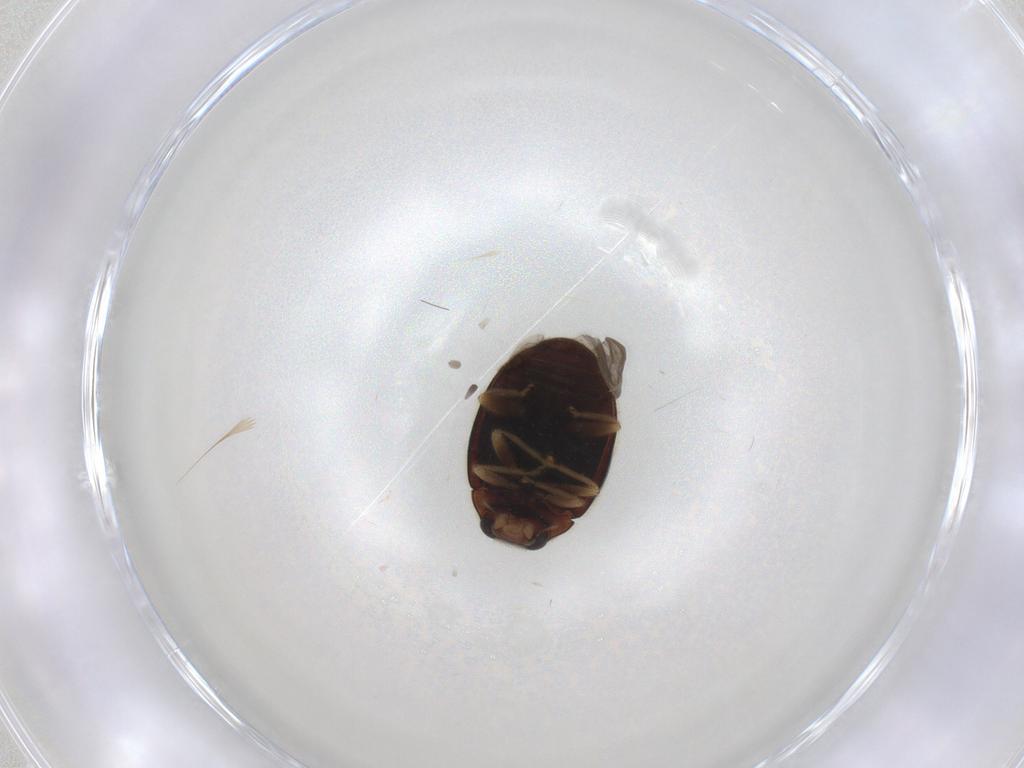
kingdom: Animalia
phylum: Arthropoda
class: Insecta
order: Coleoptera
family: Coccinellidae
